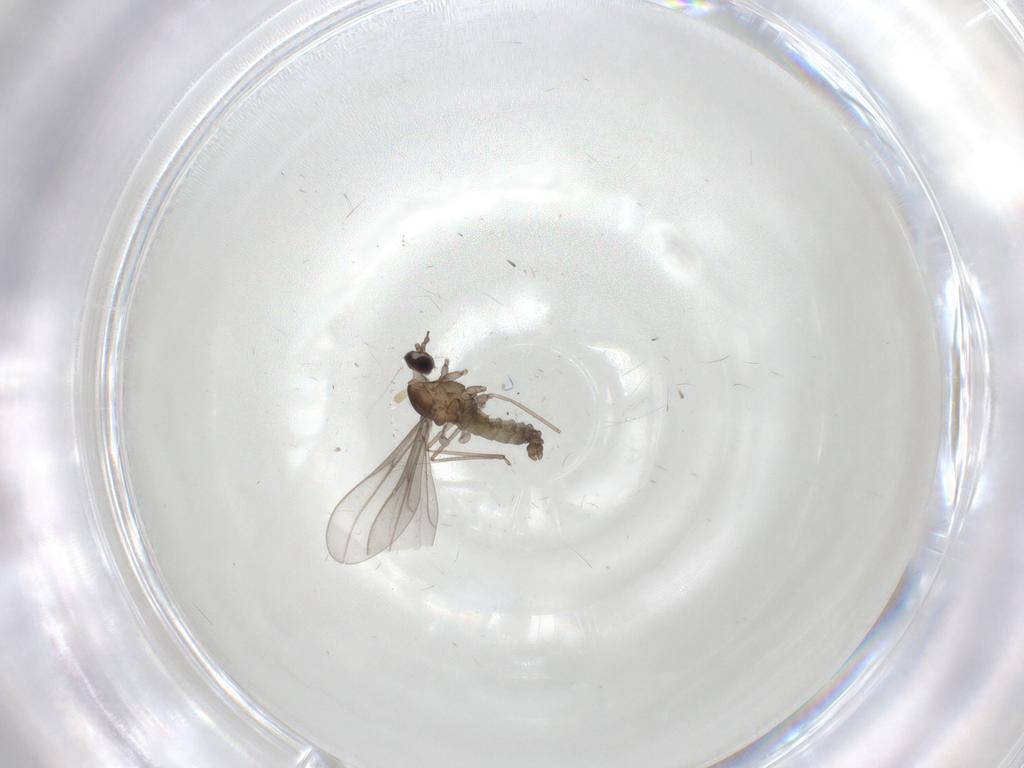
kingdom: Animalia
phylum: Arthropoda
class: Insecta
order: Hymenoptera
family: Dryinidae
